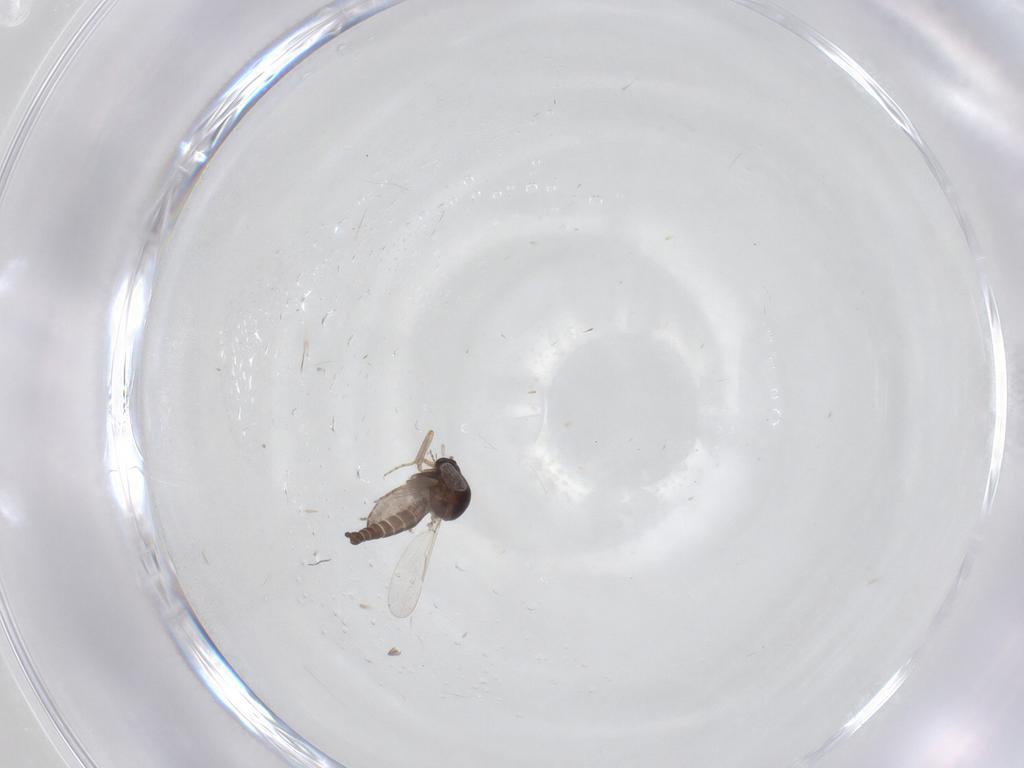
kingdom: Animalia
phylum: Arthropoda
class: Insecta
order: Diptera
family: Ceratopogonidae
